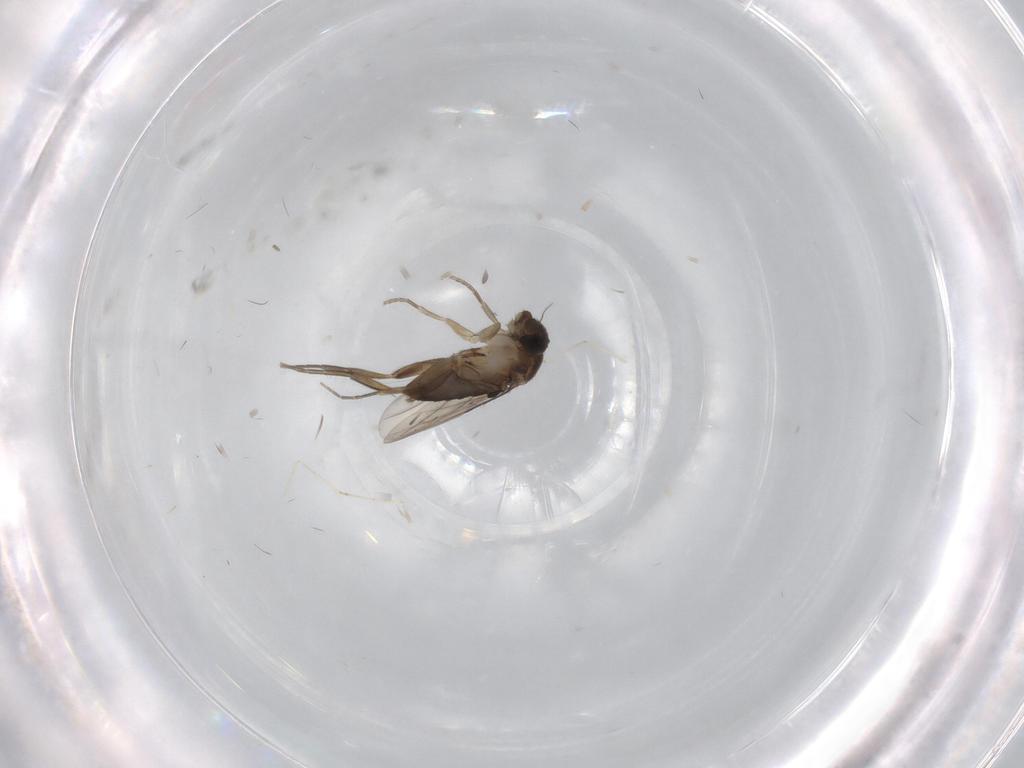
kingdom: Animalia
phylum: Arthropoda
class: Insecta
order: Diptera
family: Phoridae
